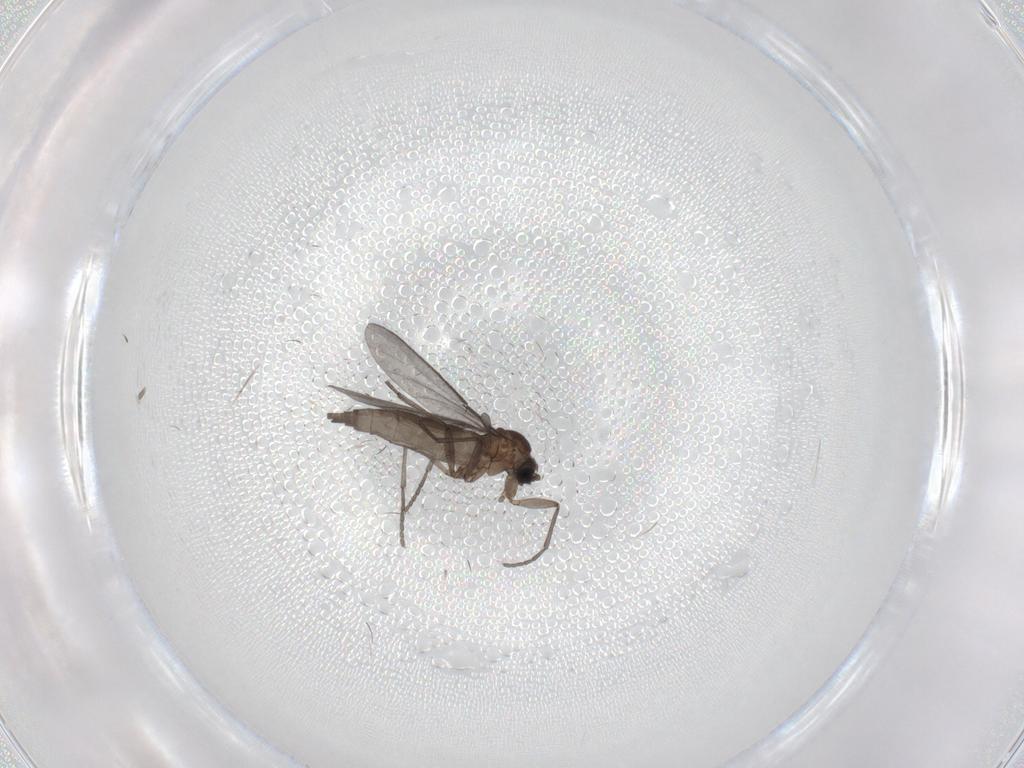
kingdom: Animalia
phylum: Arthropoda
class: Insecta
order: Diptera
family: Sciaridae
